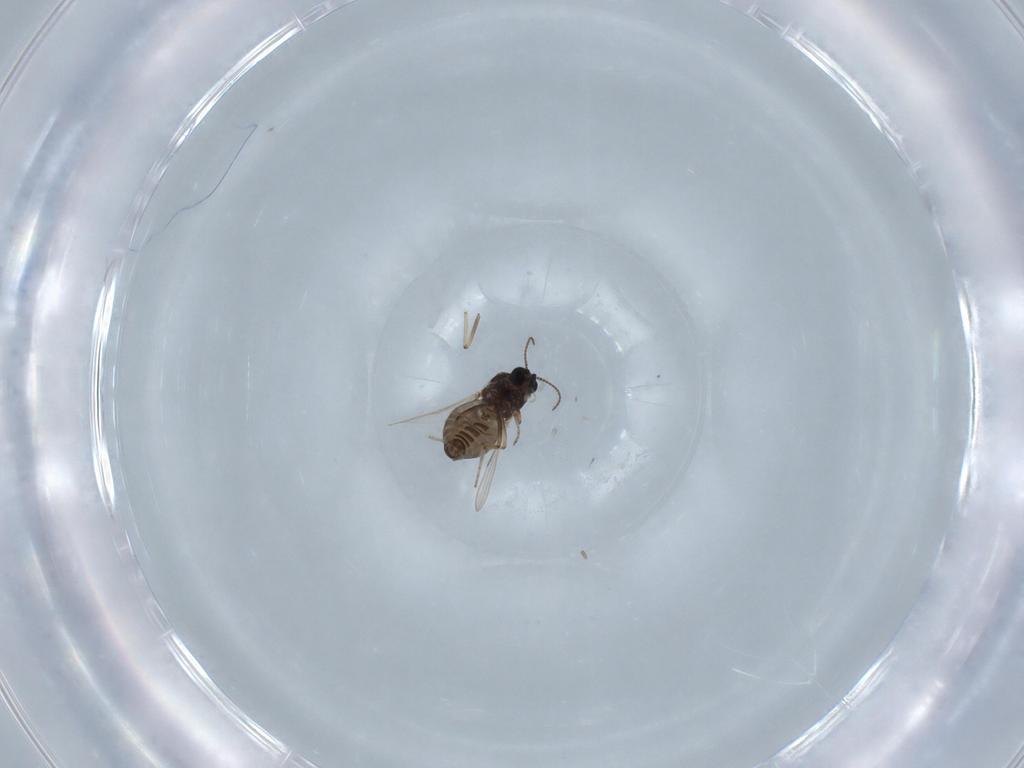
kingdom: Animalia
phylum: Arthropoda
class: Insecta
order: Diptera
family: Ceratopogonidae
